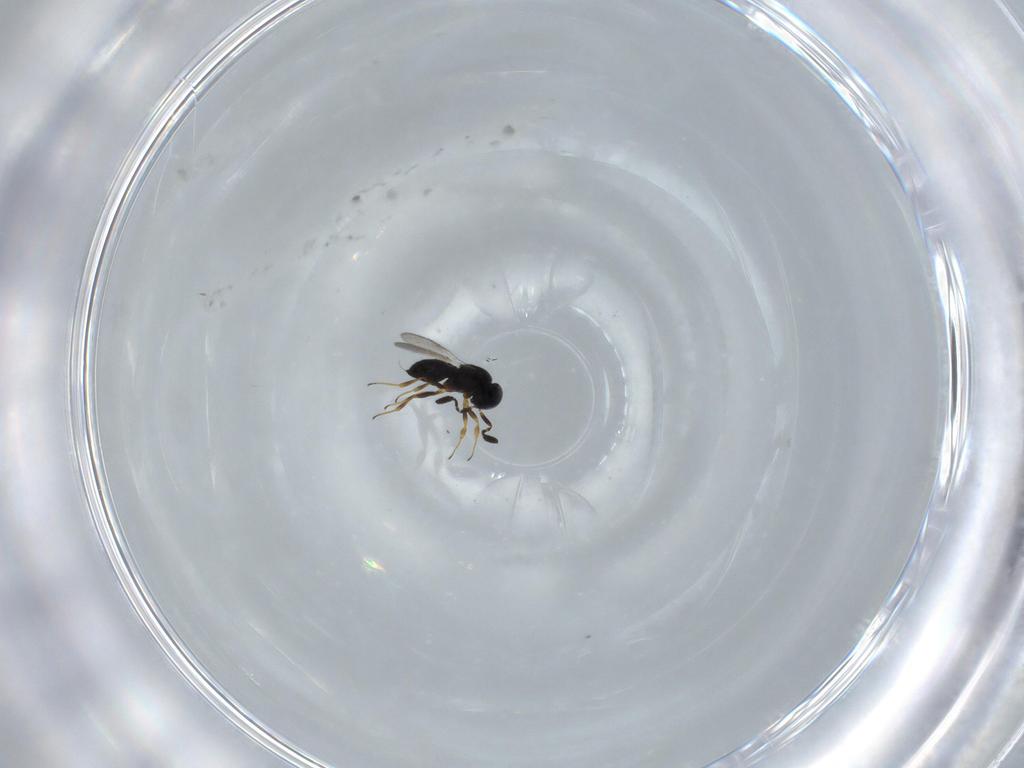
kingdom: Animalia
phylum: Arthropoda
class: Insecta
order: Hymenoptera
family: Scelionidae
